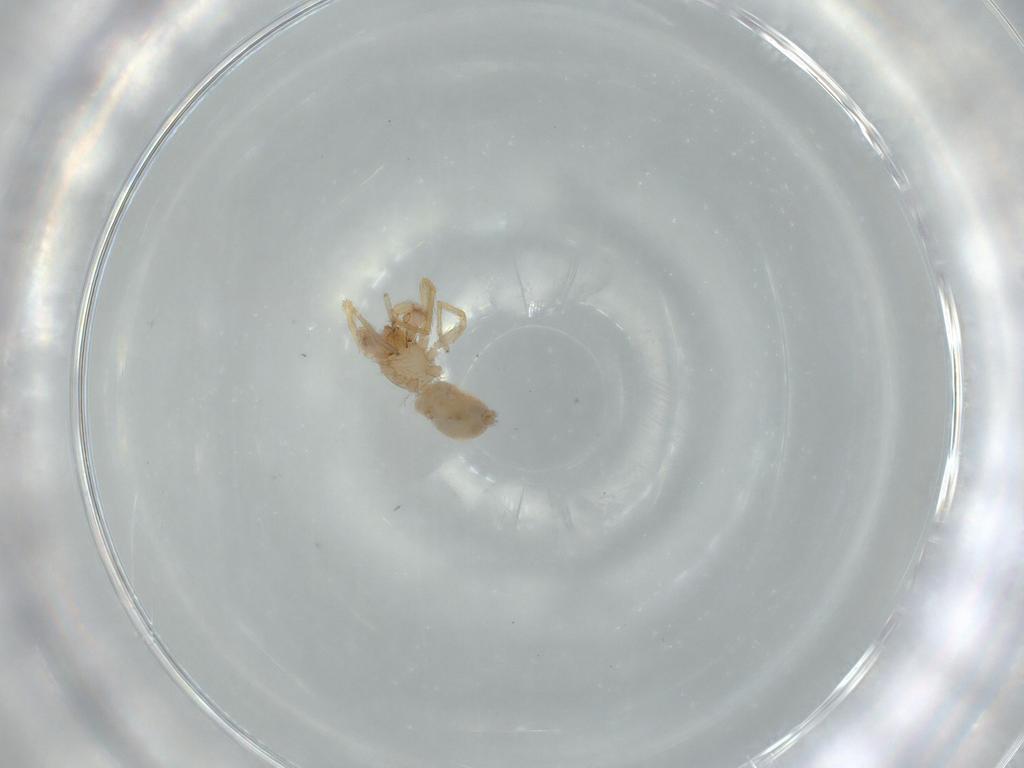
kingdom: Animalia
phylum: Arthropoda
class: Arachnida
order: Araneae
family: Oonopidae
